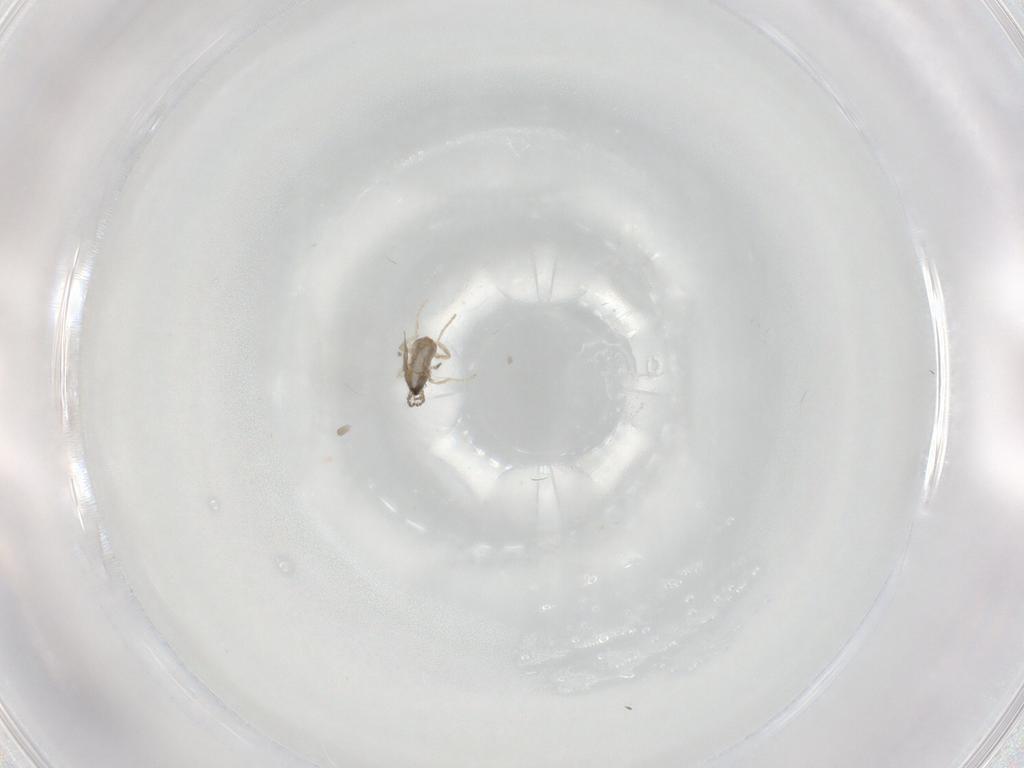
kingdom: Animalia
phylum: Arthropoda
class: Insecta
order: Diptera
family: Cecidomyiidae
